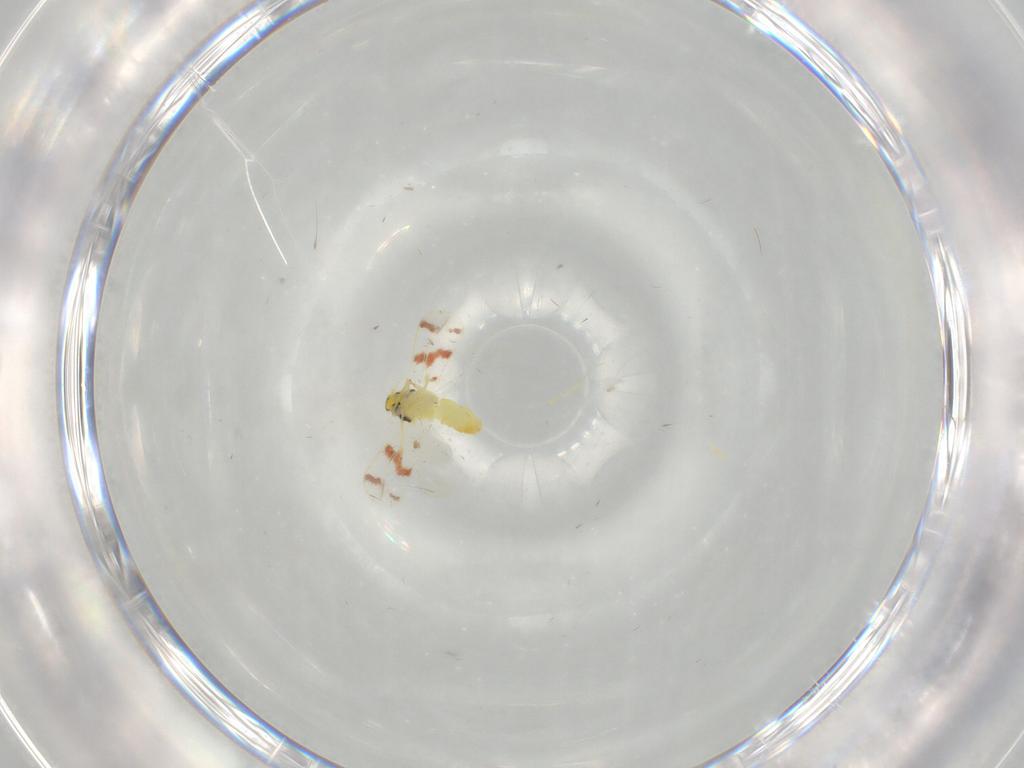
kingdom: Animalia
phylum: Arthropoda
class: Insecta
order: Hemiptera
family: Aleyrodidae
